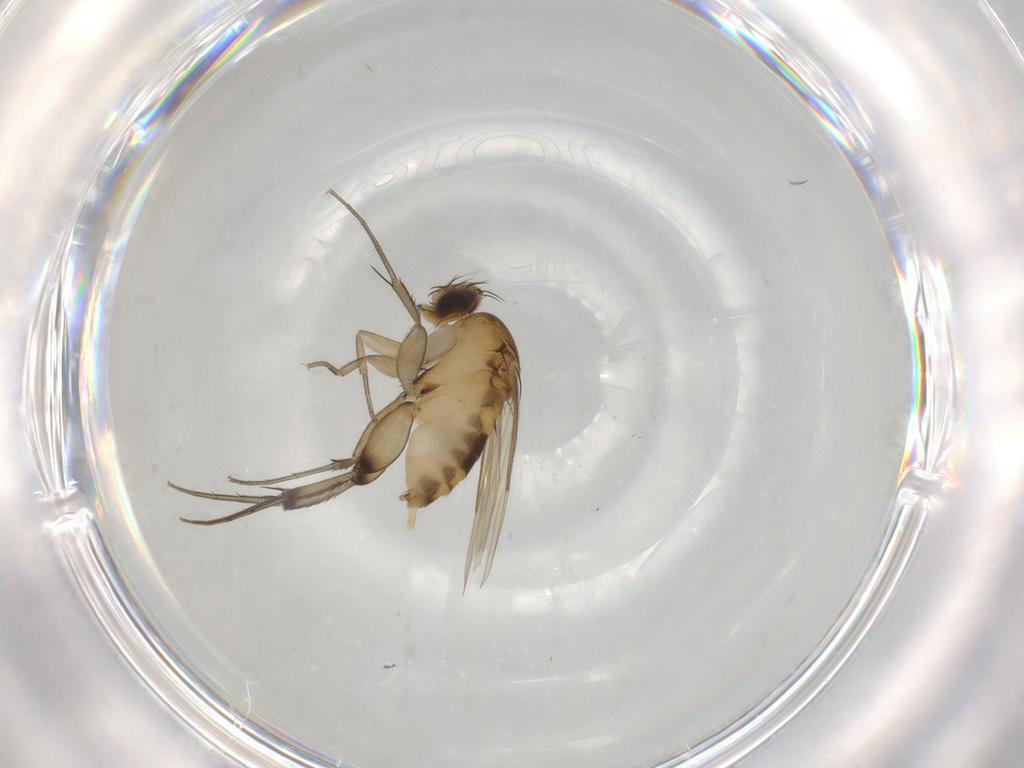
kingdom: Animalia
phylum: Arthropoda
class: Insecta
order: Diptera
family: Phoridae
